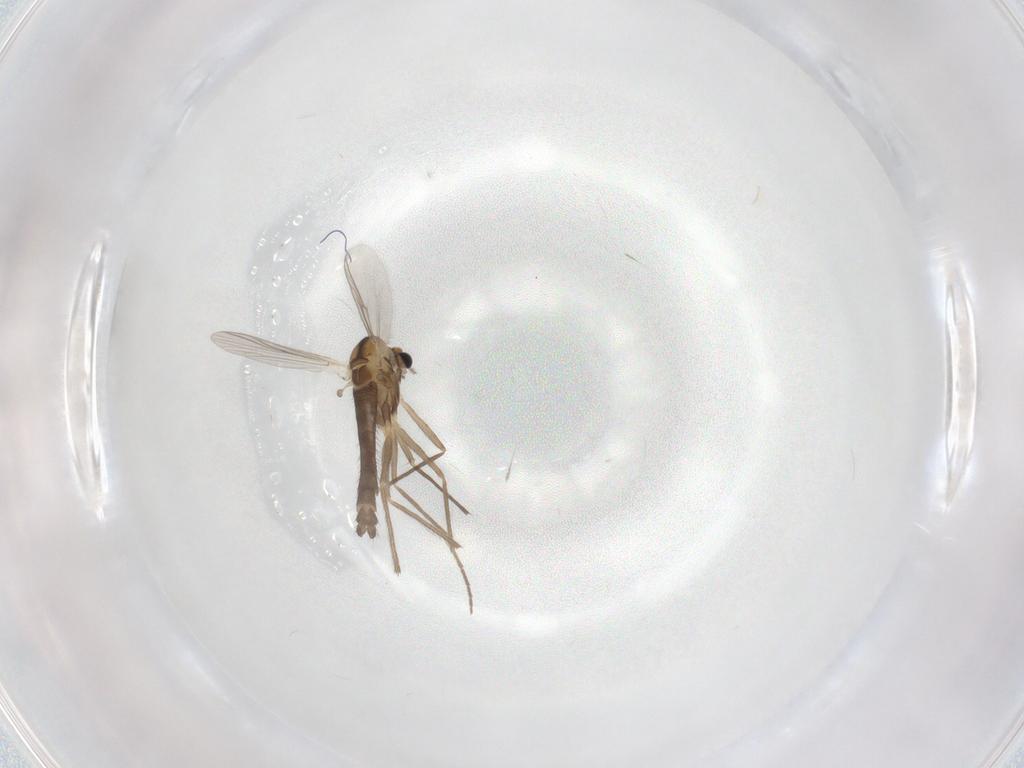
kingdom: Animalia
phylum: Arthropoda
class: Insecta
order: Diptera
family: Chironomidae
